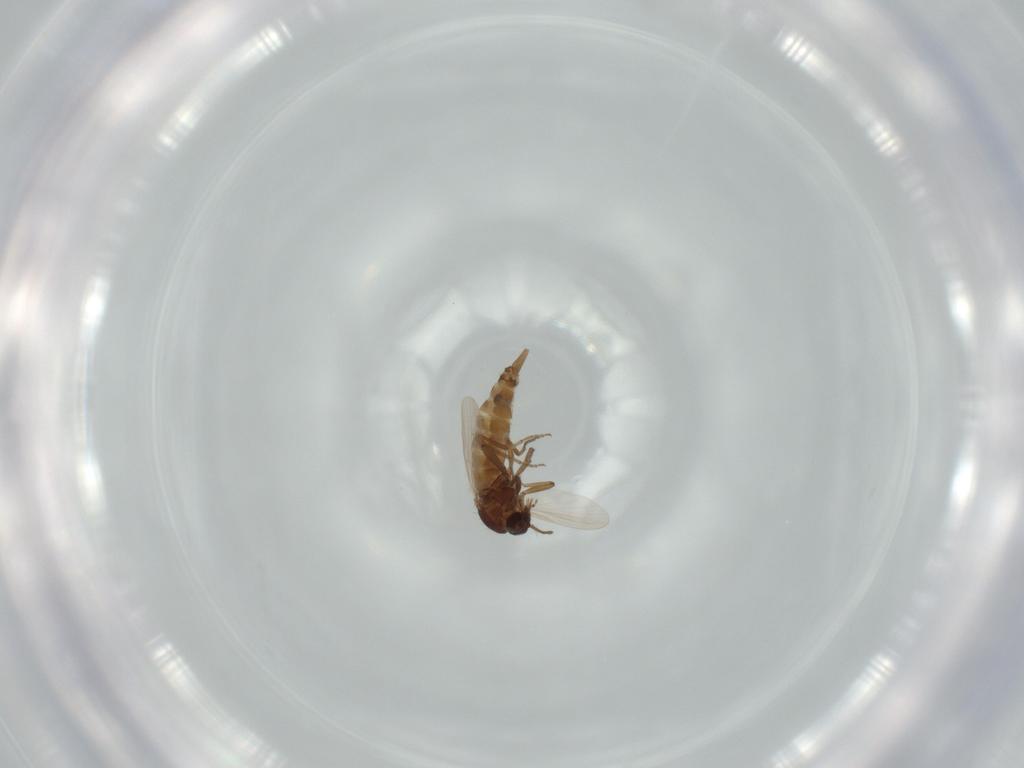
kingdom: Animalia
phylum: Arthropoda
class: Insecta
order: Diptera
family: Ceratopogonidae
